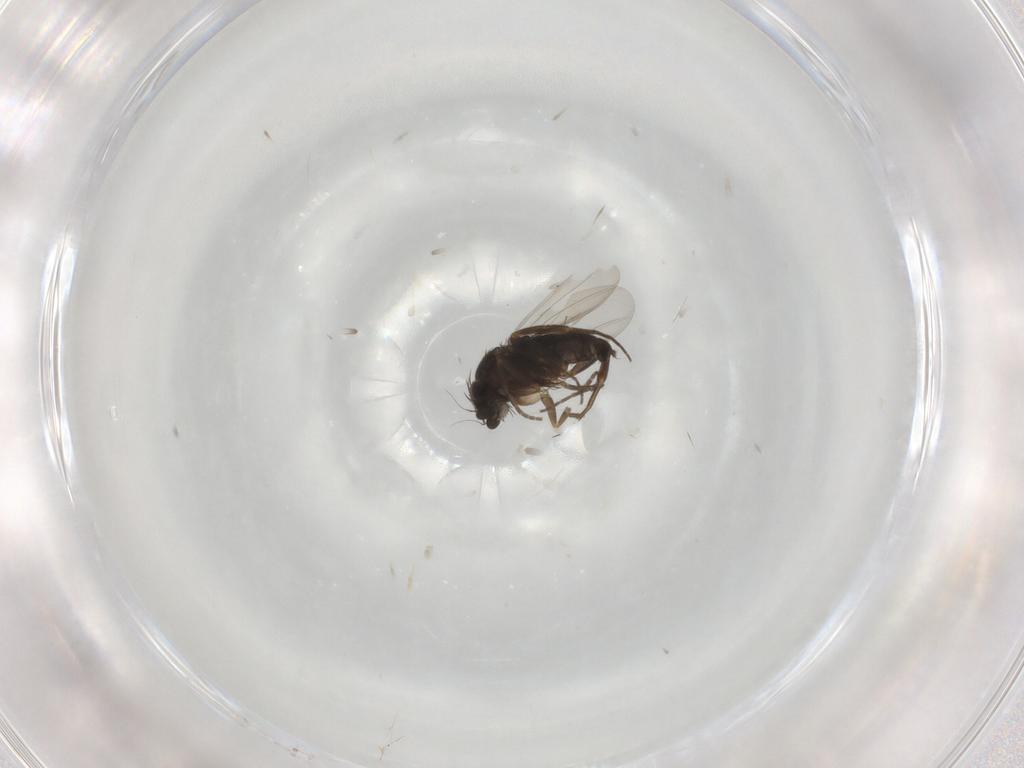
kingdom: Animalia
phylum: Arthropoda
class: Insecta
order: Diptera
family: Phoridae
